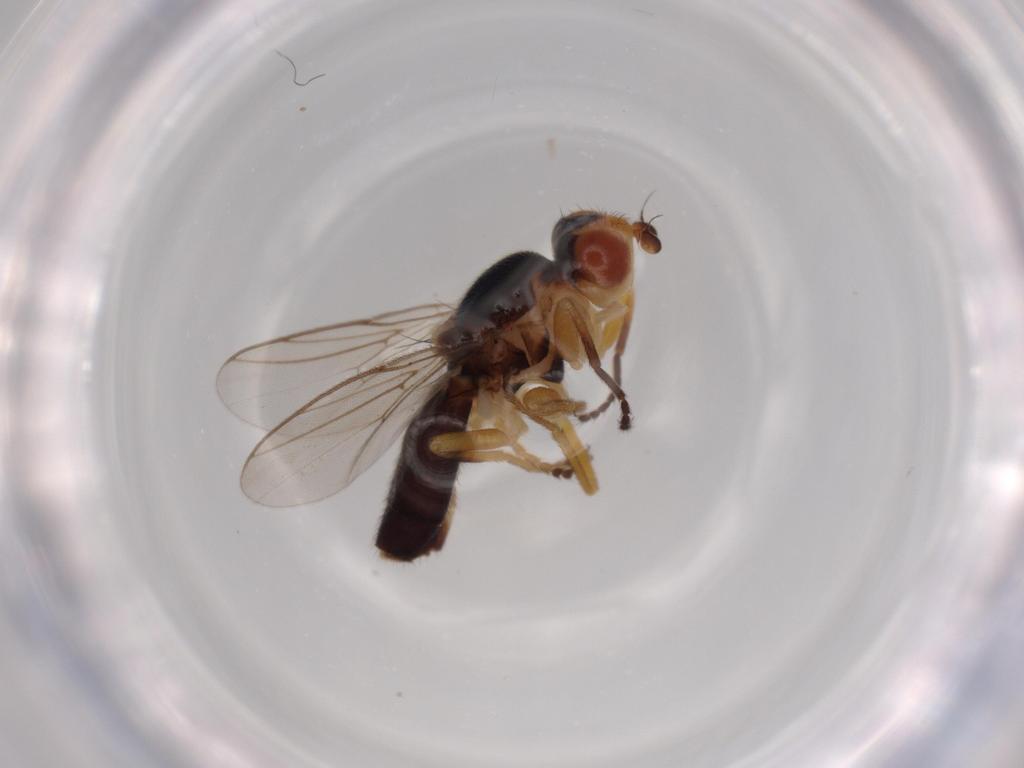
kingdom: Animalia
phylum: Arthropoda
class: Insecta
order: Diptera
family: Chloropidae
